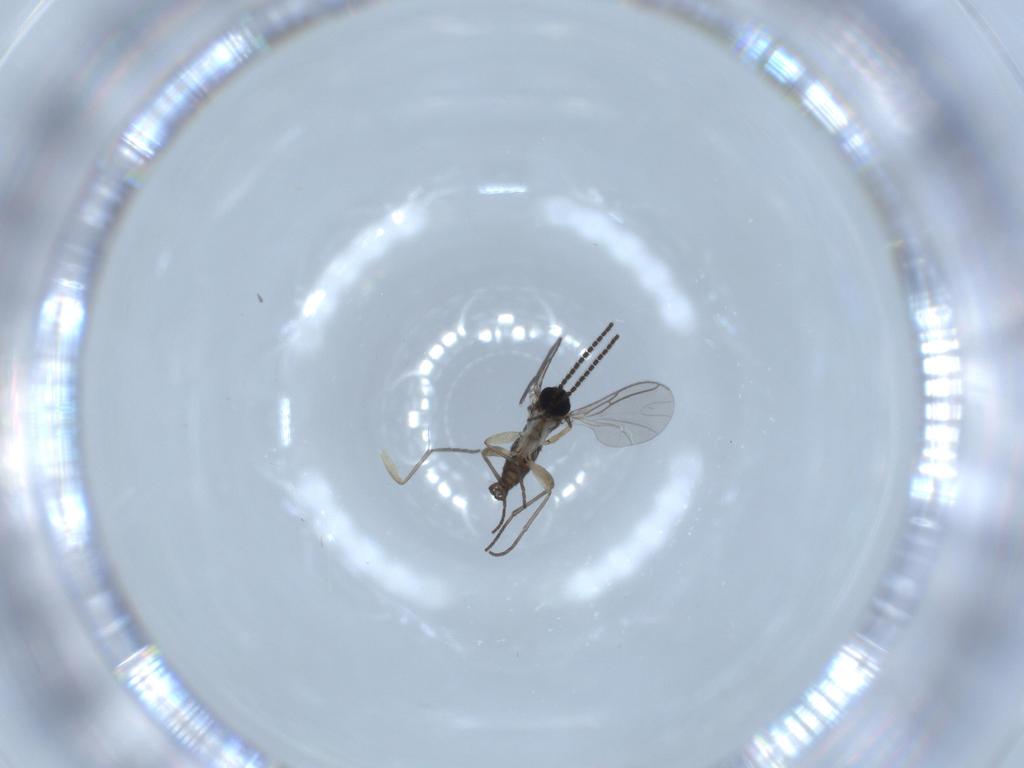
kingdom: Animalia
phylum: Arthropoda
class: Insecta
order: Diptera
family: Sciaridae
